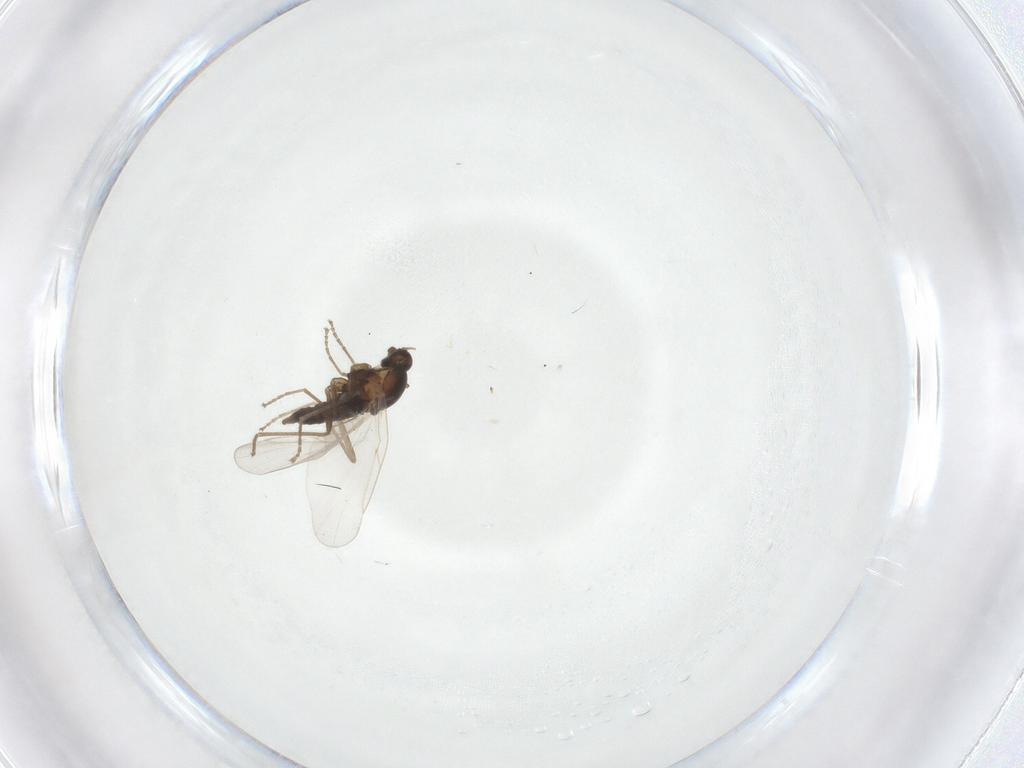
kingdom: Animalia
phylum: Arthropoda
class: Insecta
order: Diptera
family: Cecidomyiidae
